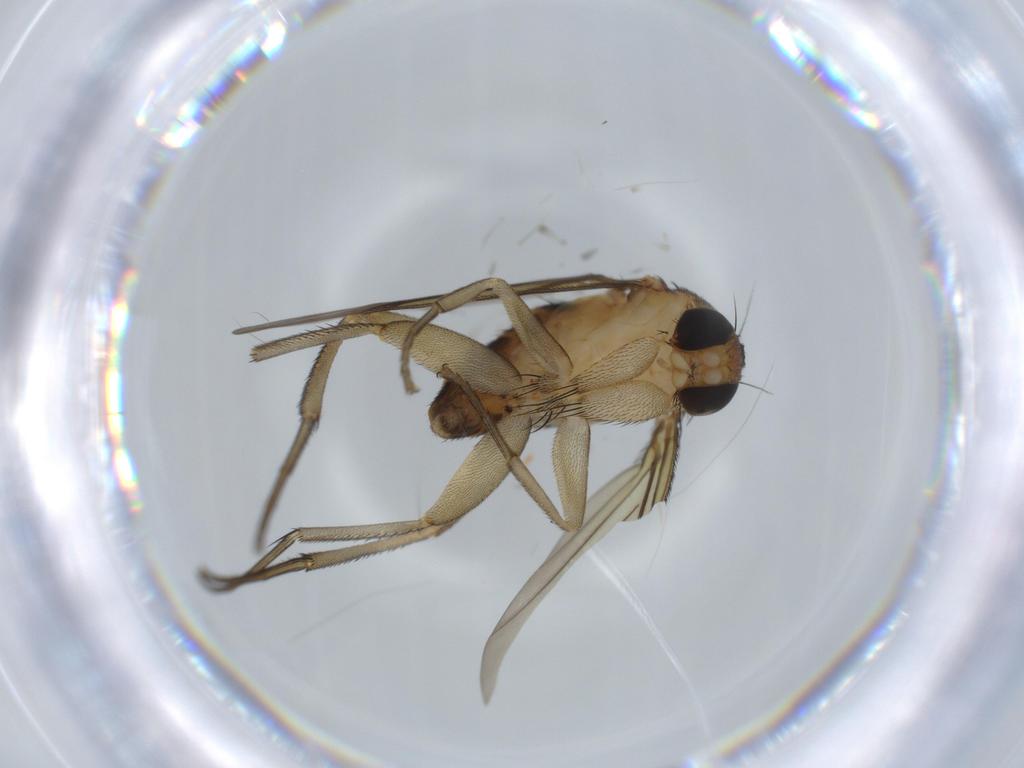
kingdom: Animalia
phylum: Arthropoda
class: Insecta
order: Diptera
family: Phoridae
